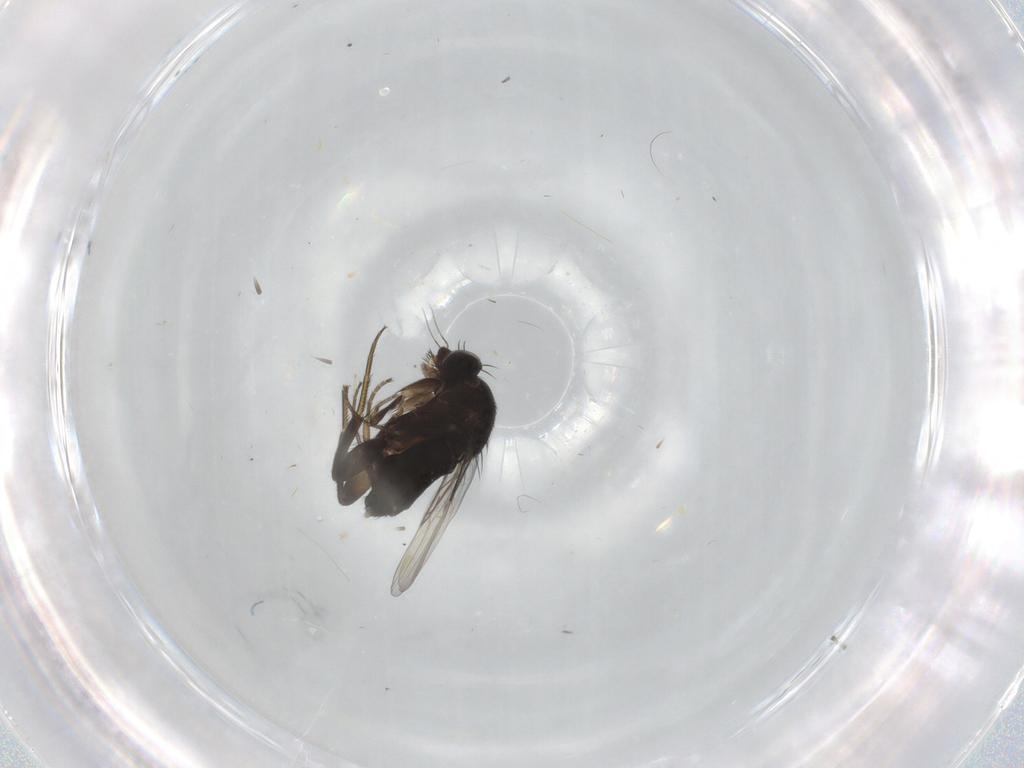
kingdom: Animalia
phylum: Arthropoda
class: Insecta
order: Diptera
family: Phoridae
